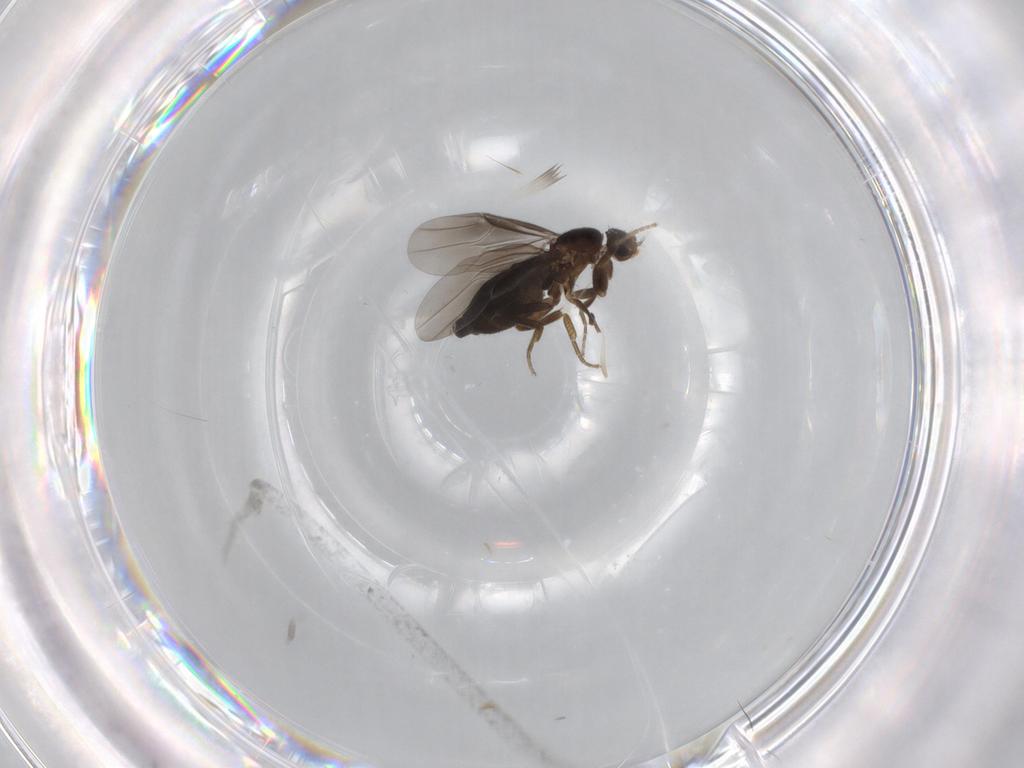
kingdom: Animalia
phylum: Arthropoda
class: Insecta
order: Diptera
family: Phoridae
